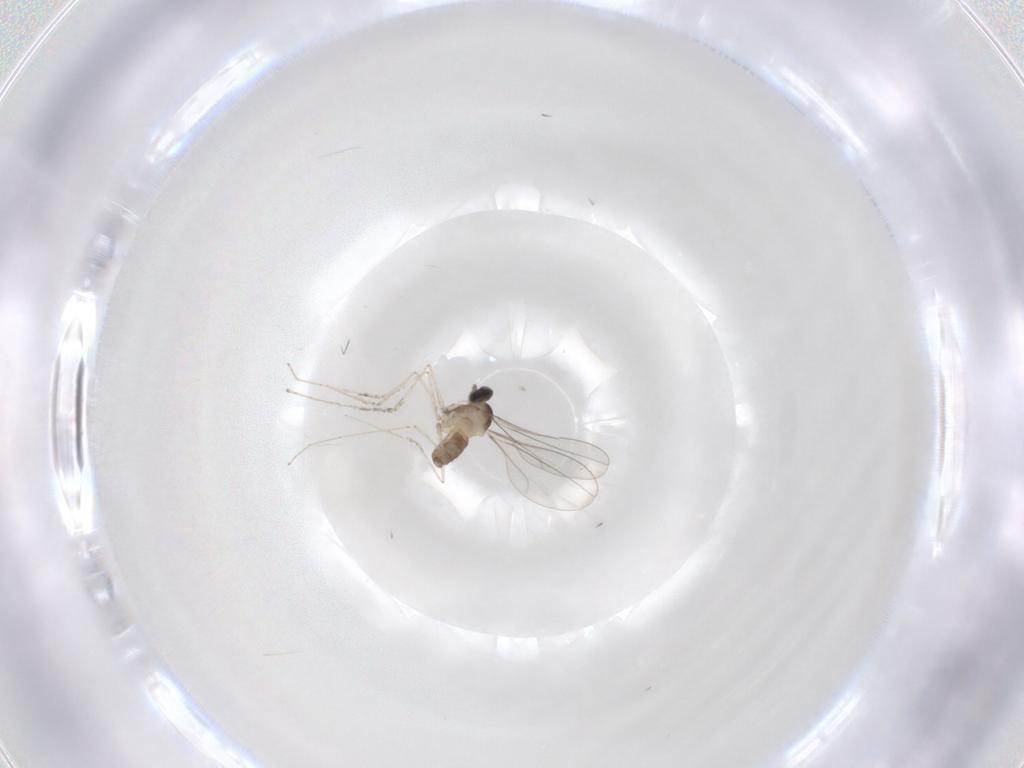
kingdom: Animalia
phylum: Arthropoda
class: Insecta
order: Diptera
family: Cecidomyiidae
